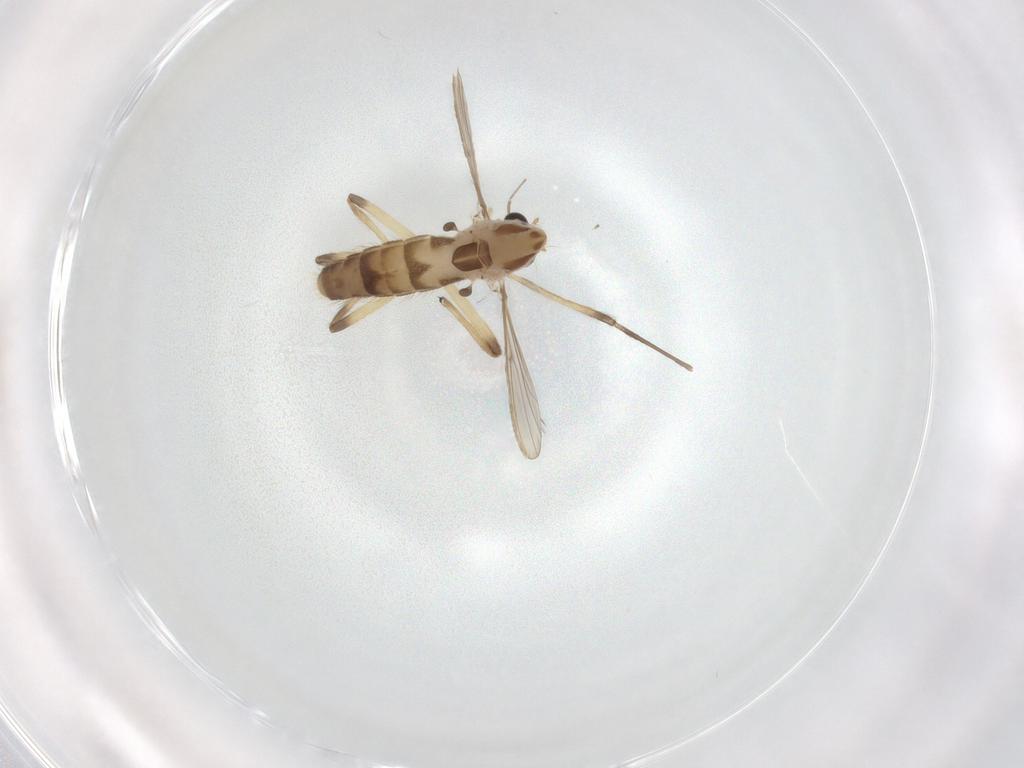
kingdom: Animalia
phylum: Arthropoda
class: Insecta
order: Diptera
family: Chironomidae
